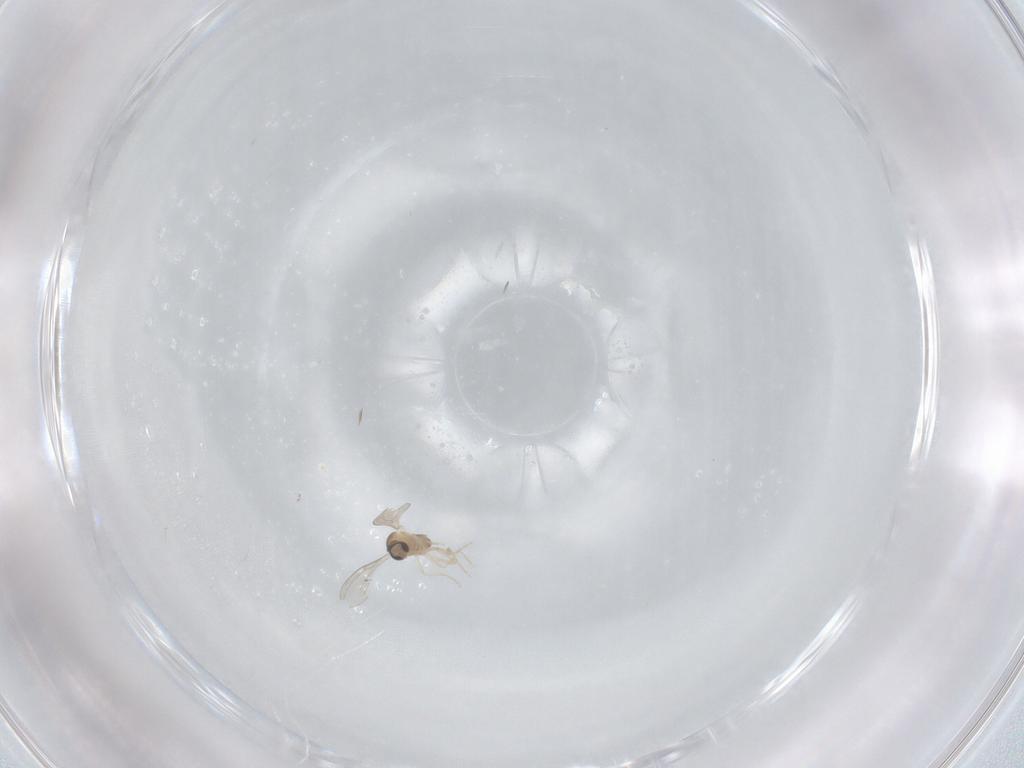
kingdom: Animalia
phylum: Arthropoda
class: Insecta
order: Diptera
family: Cecidomyiidae
